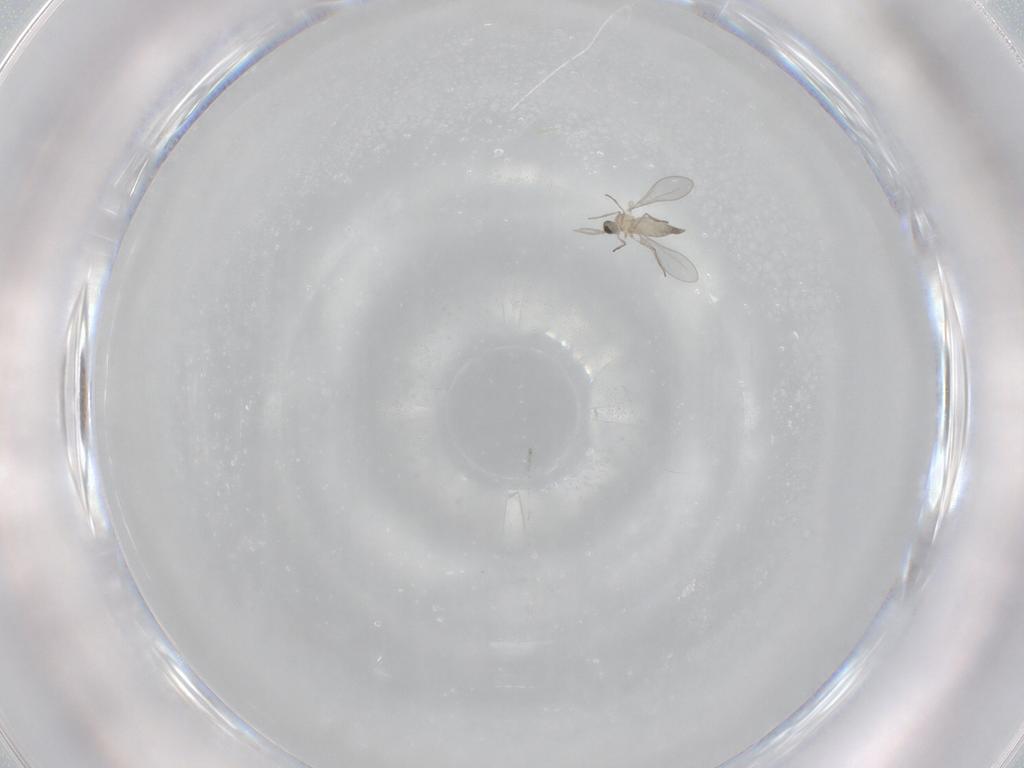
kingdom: Animalia
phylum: Arthropoda
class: Insecta
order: Diptera
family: Cecidomyiidae
